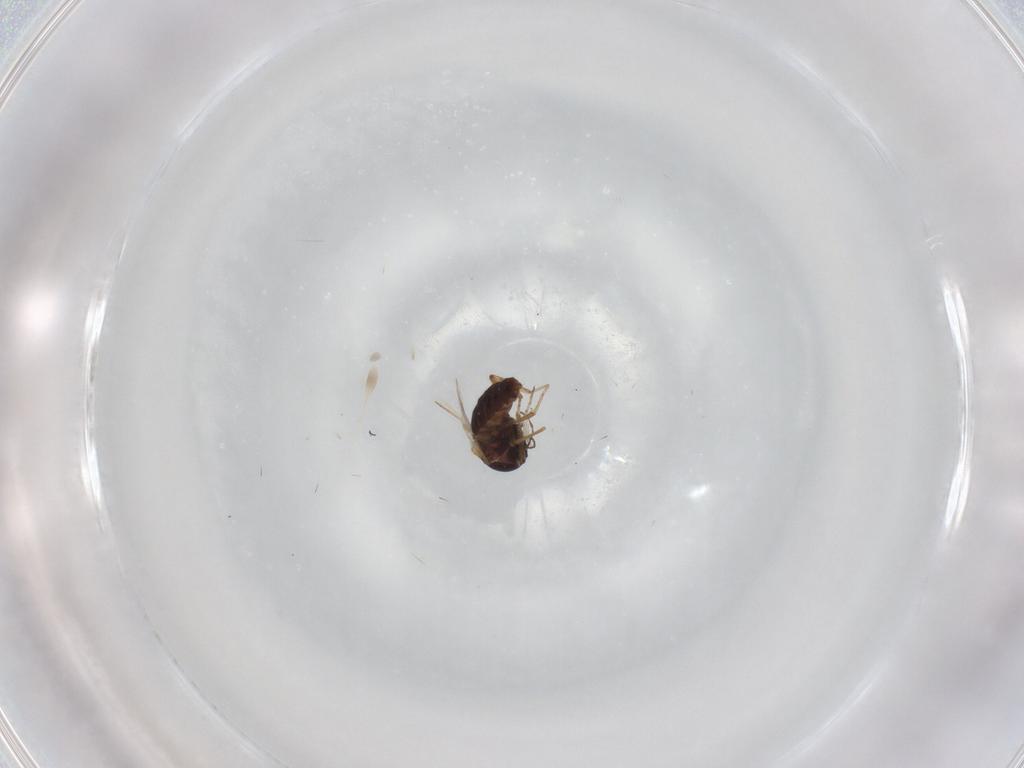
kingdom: Animalia
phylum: Arthropoda
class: Insecta
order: Diptera
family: Ceratopogonidae
